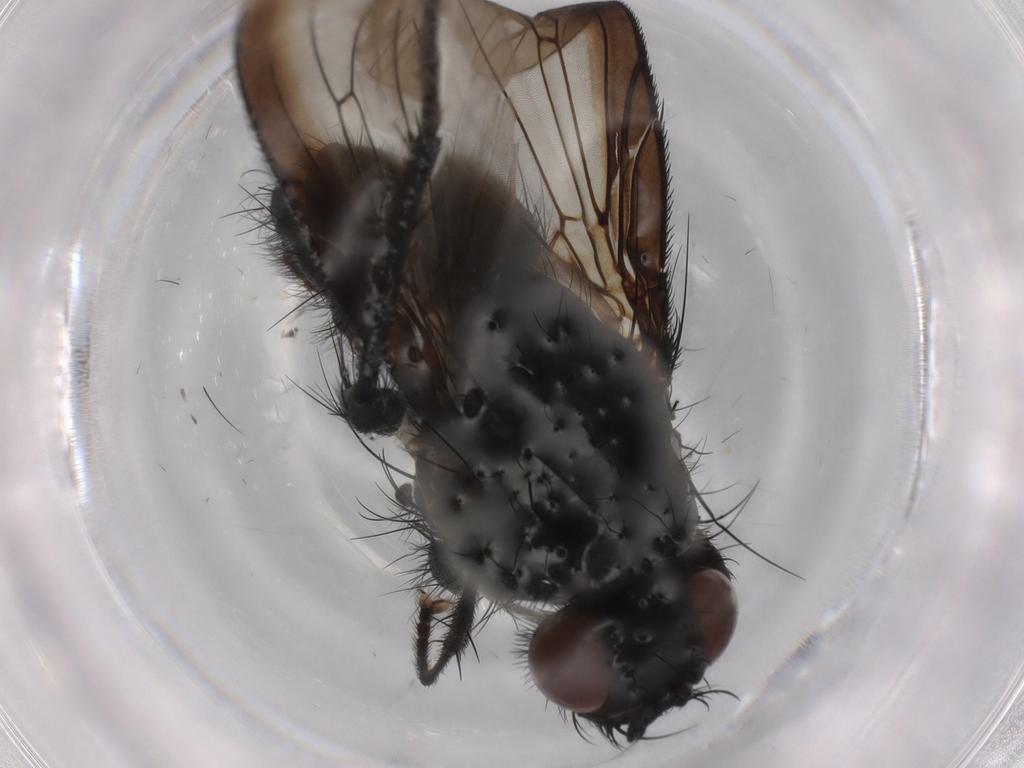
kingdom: Animalia
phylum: Arthropoda
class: Insecta
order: Diptera
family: Anthomyiidae
